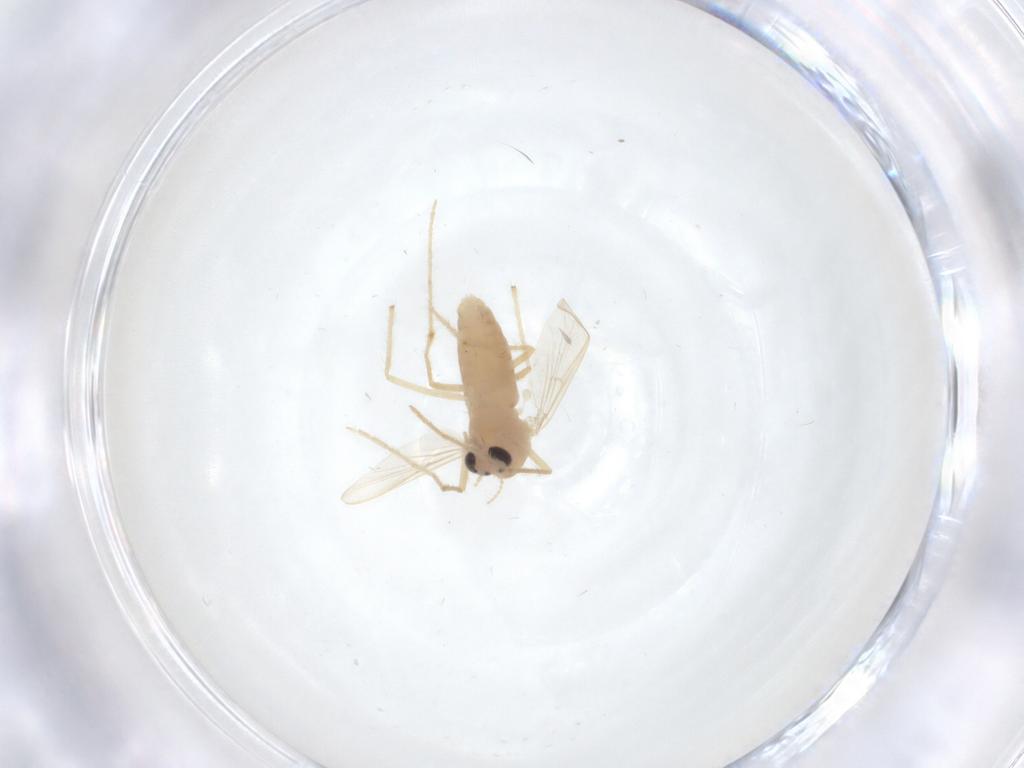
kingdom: Animalia
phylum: Arthropoda
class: Insecta
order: Diptera
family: Chironomidae
